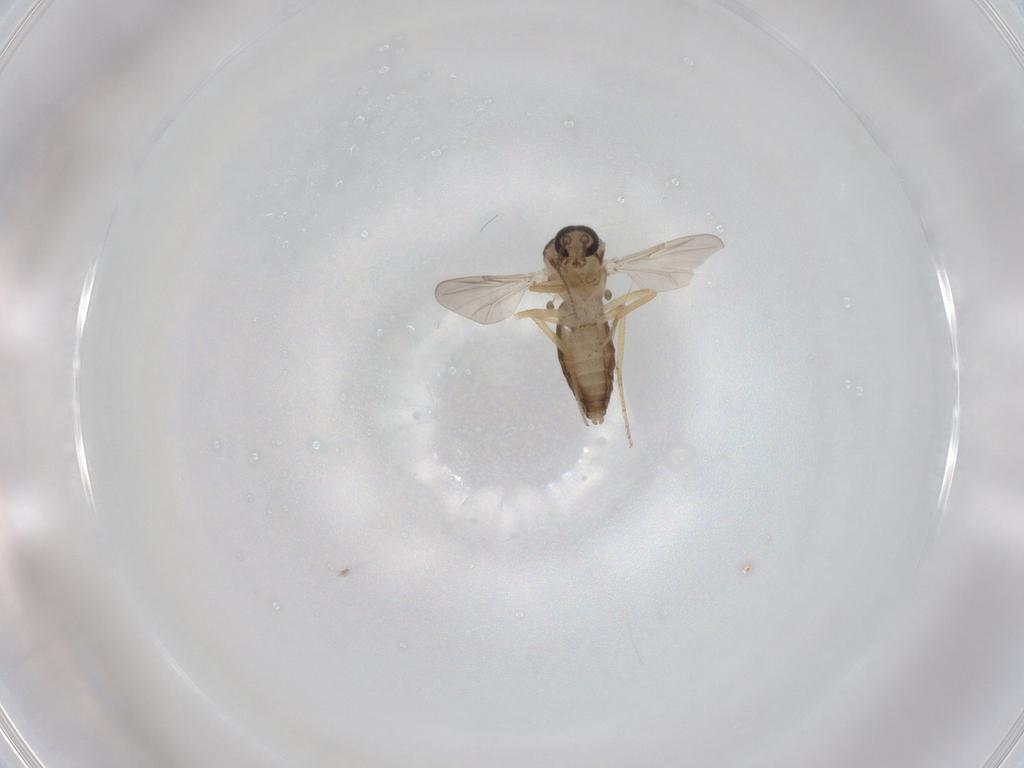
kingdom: Animalia
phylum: Arthropoda
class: Insecta
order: Diptera
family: Ceratopogonidae
